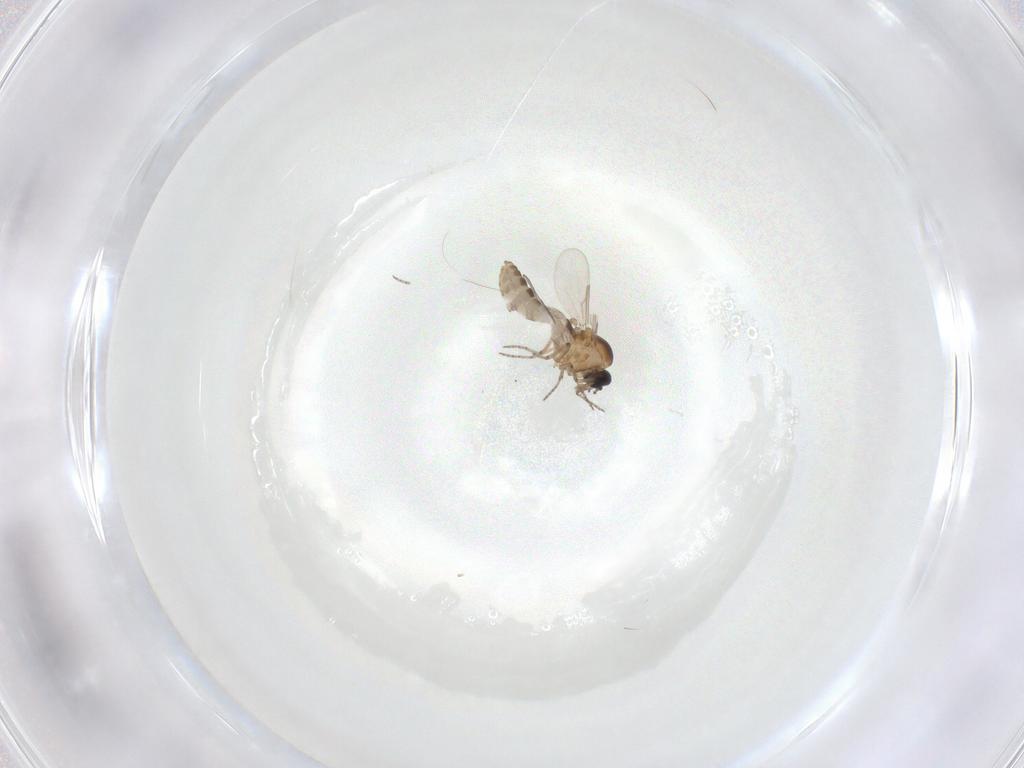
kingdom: Animalia
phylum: Arthropoda
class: Insecta
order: Diptera
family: Ceratopogonidae
